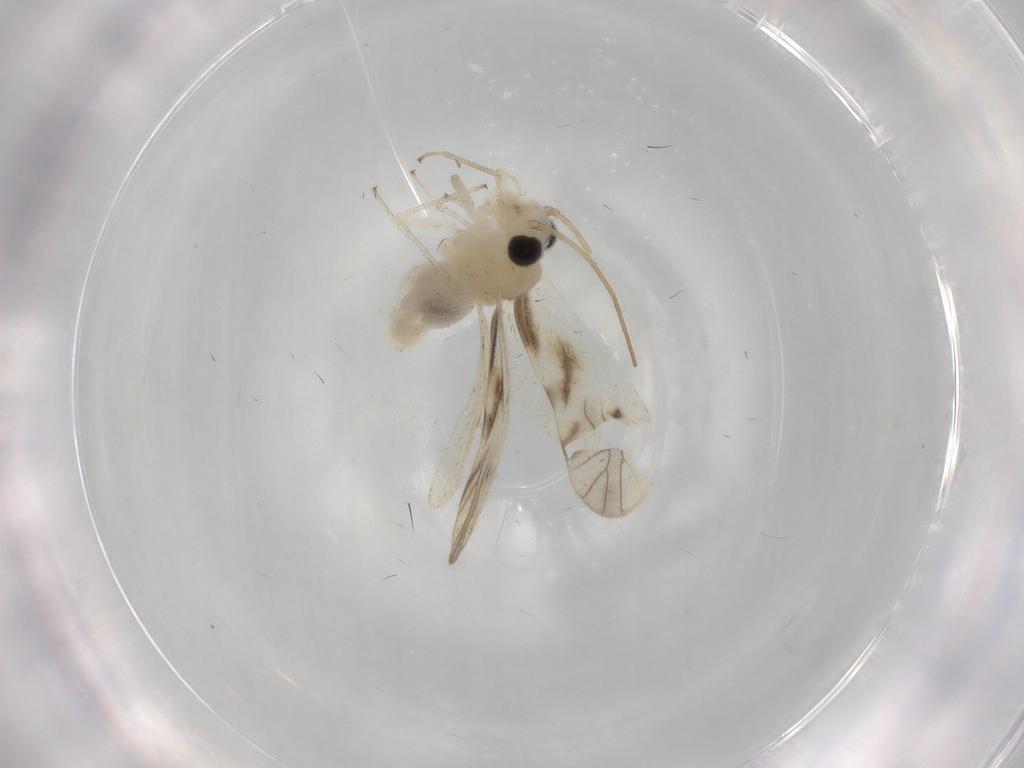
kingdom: Animalia
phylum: Arthropoda
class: Insecta
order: Psocodea
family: Caeciliusidae
